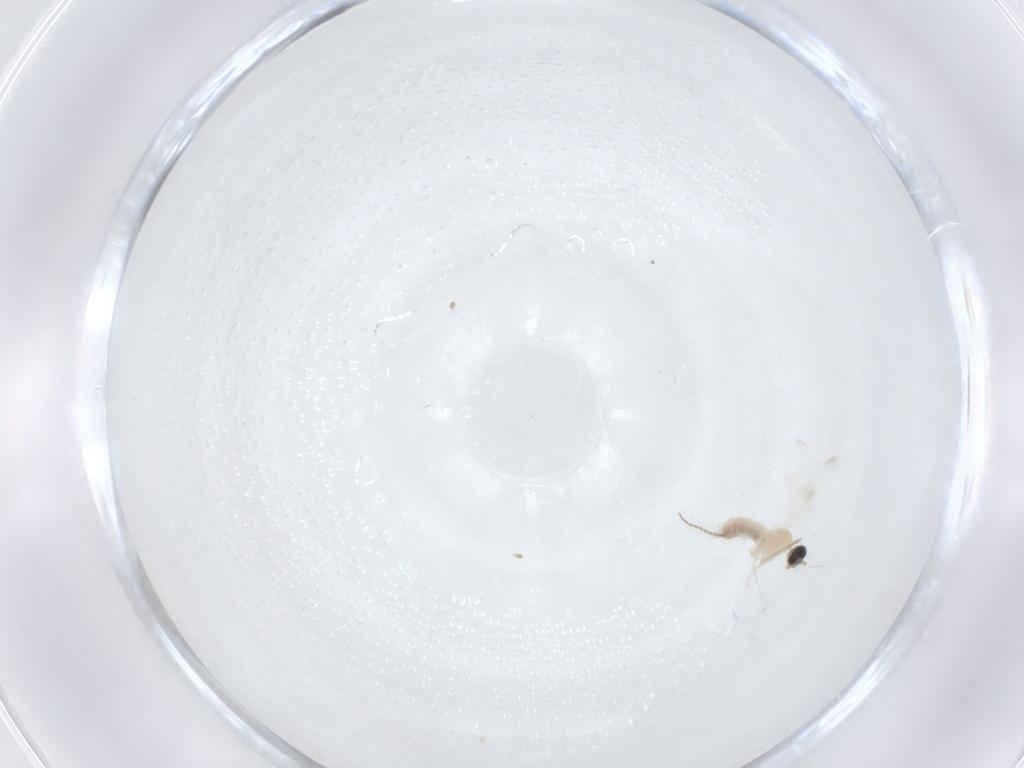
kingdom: Animalia
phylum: Arthropoda
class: Insecta
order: Diptera
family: Cecidomyiidae
